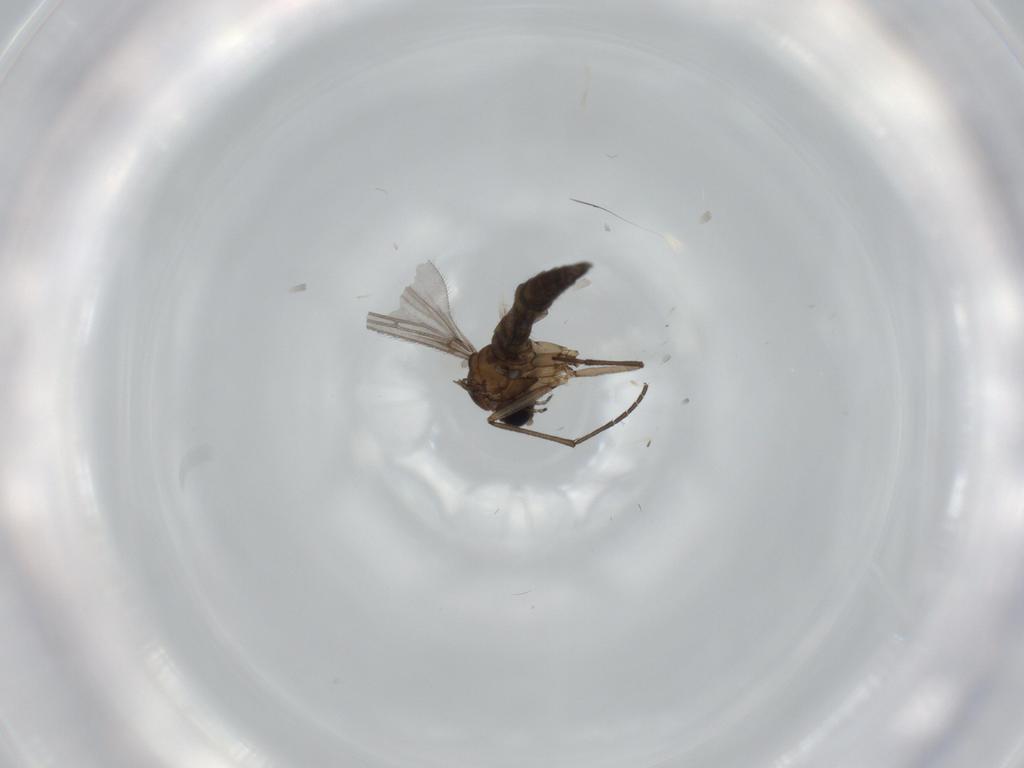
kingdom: Animalia
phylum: Arthropoda
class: Insecta
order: Diptera
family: Sciaridae
